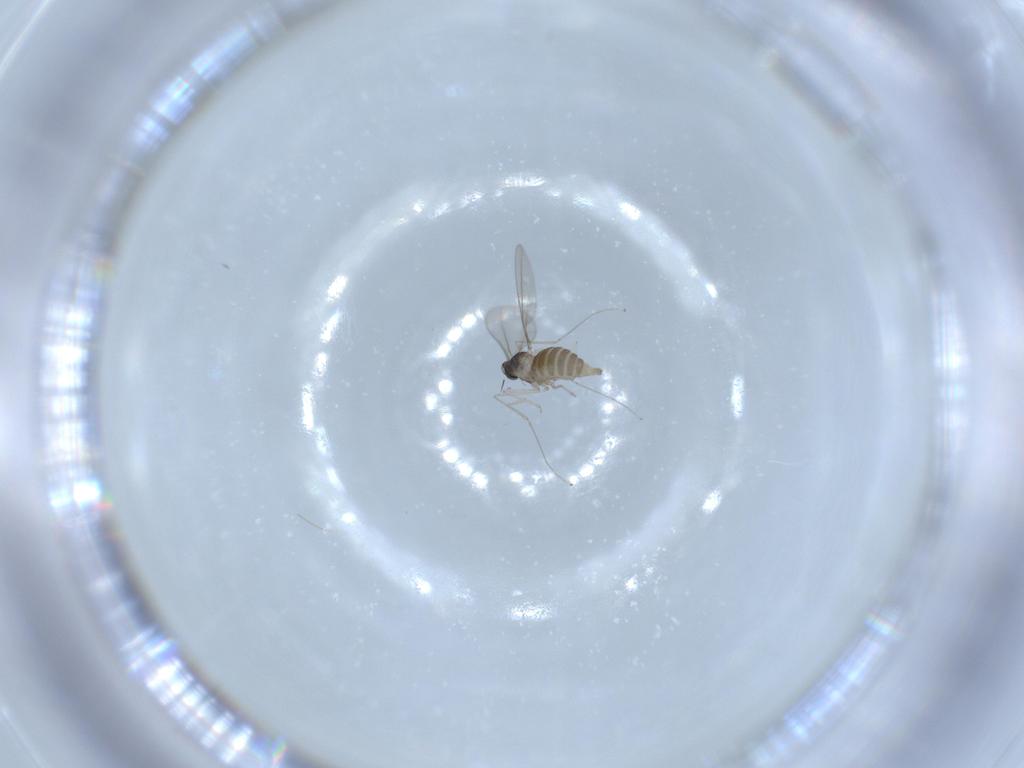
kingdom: Animalia
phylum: Arthropoda
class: Insecta
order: Diptera
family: Cecidomyiidae
